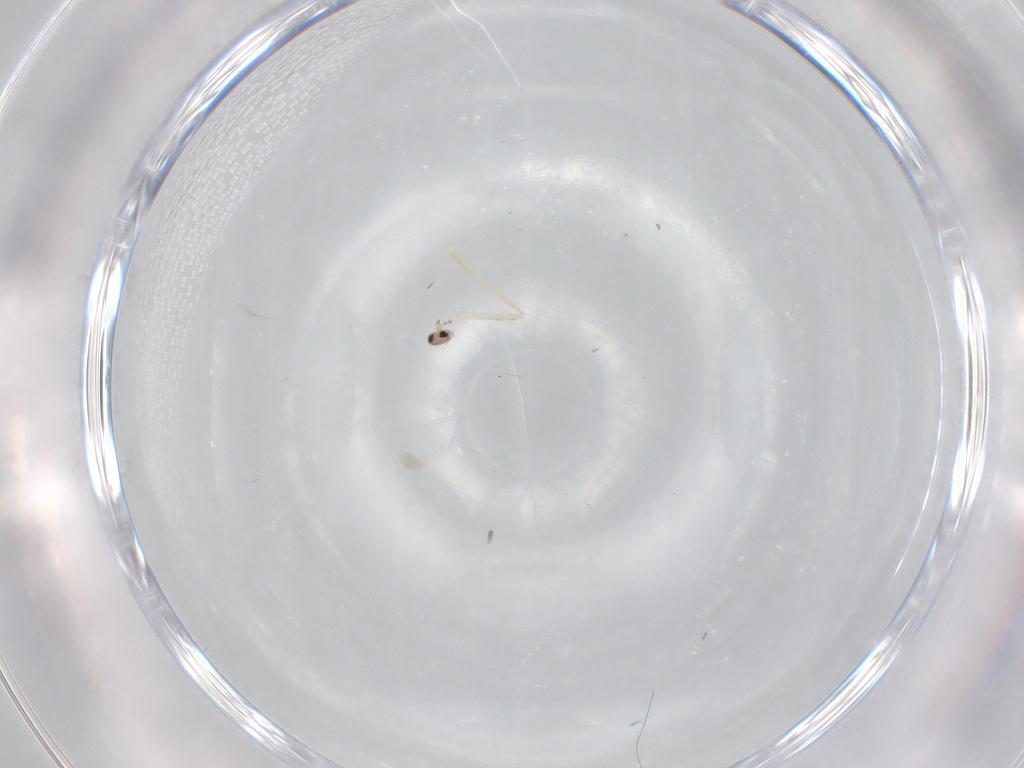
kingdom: Animalia
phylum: Arthropoda
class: Insecta
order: Diptera
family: Cecidomyiidae
